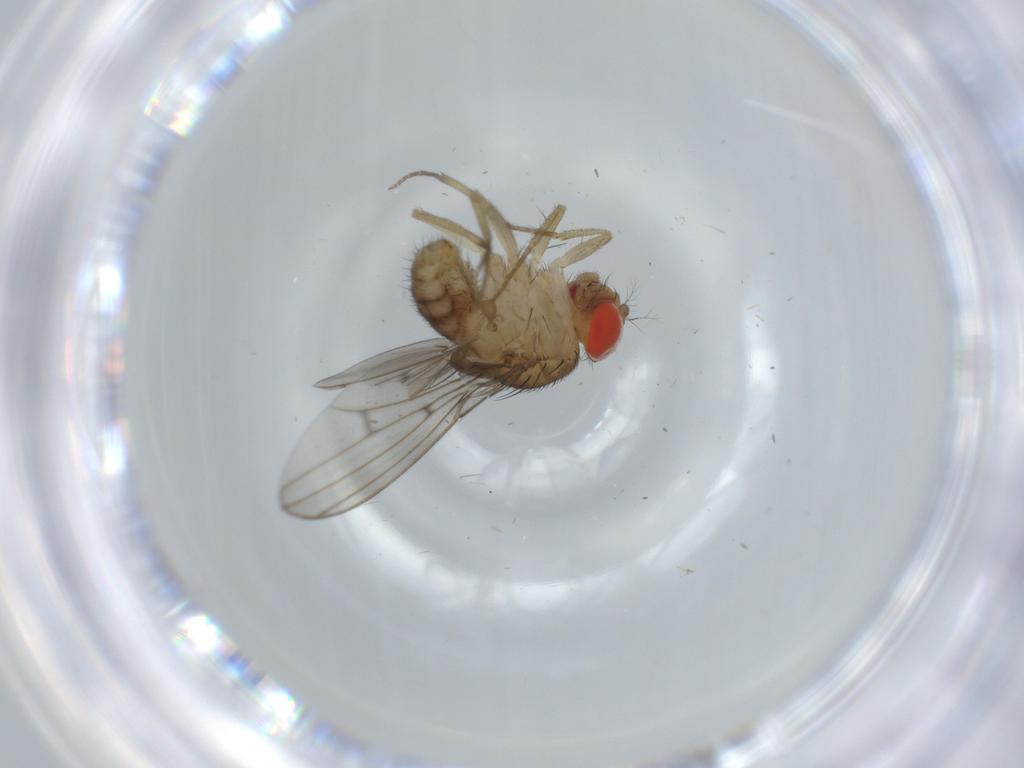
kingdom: Animalia
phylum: Arthropoda
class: Insecta
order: Diptera
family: Drosophilidae
